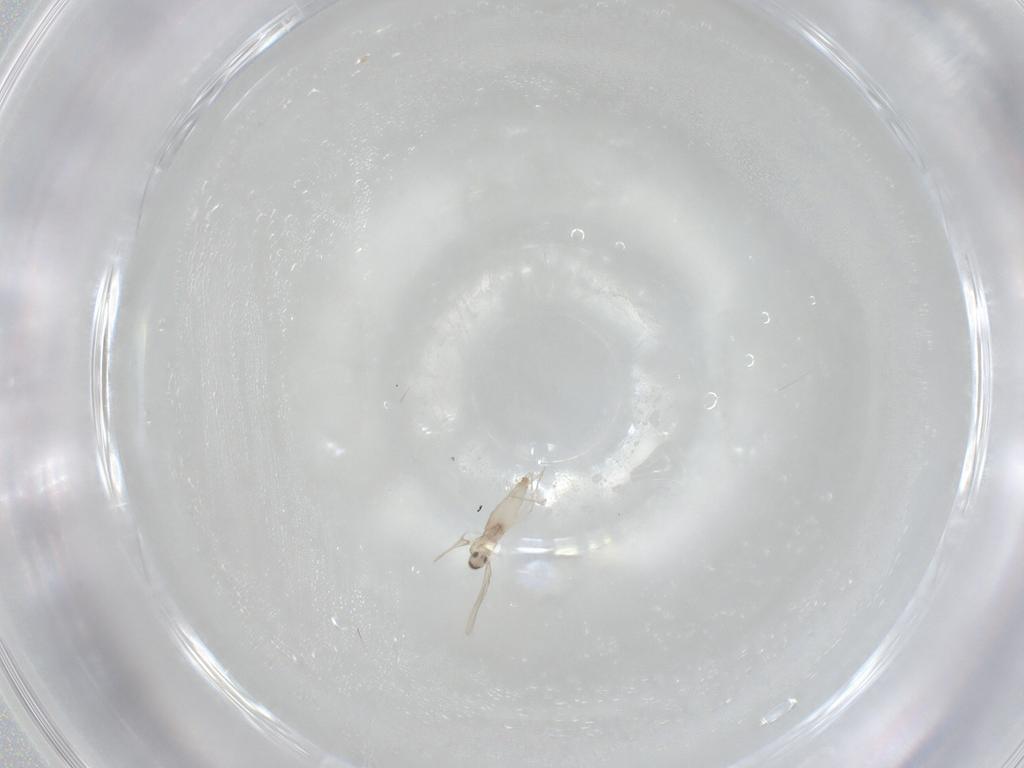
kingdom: Animalia
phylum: Arthropoda
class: Insecta
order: Diptera
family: Cecidomyiidae
